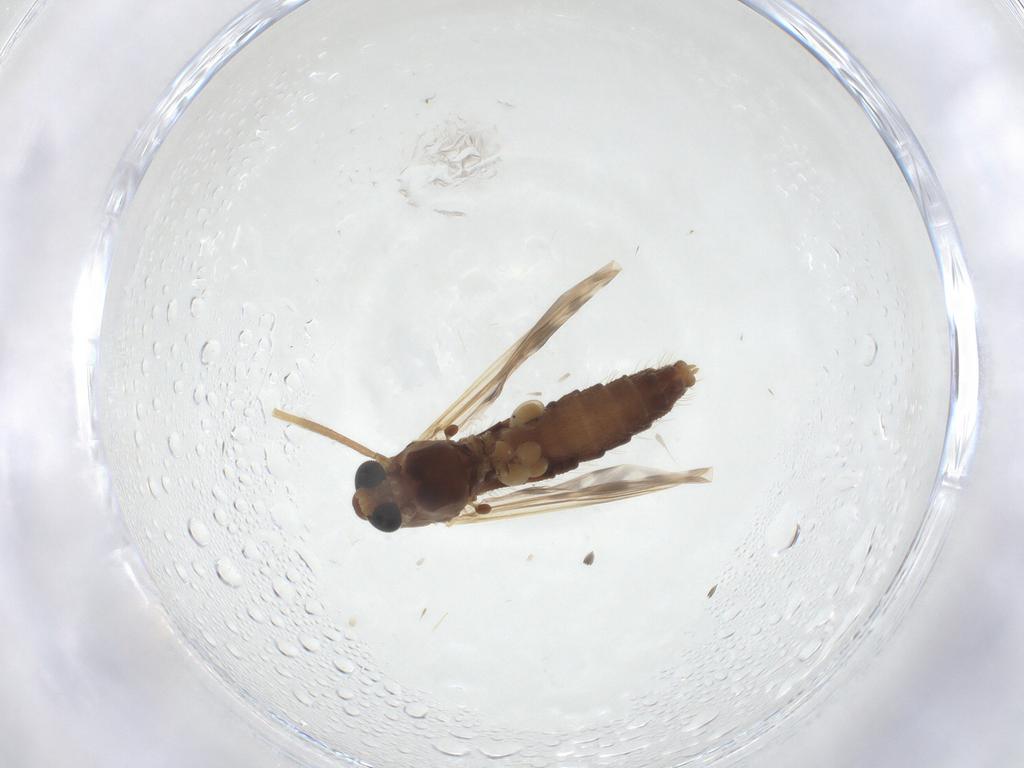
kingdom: Animalia
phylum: Arthropoda
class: Insecta
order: Diptera
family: Chironomidae
